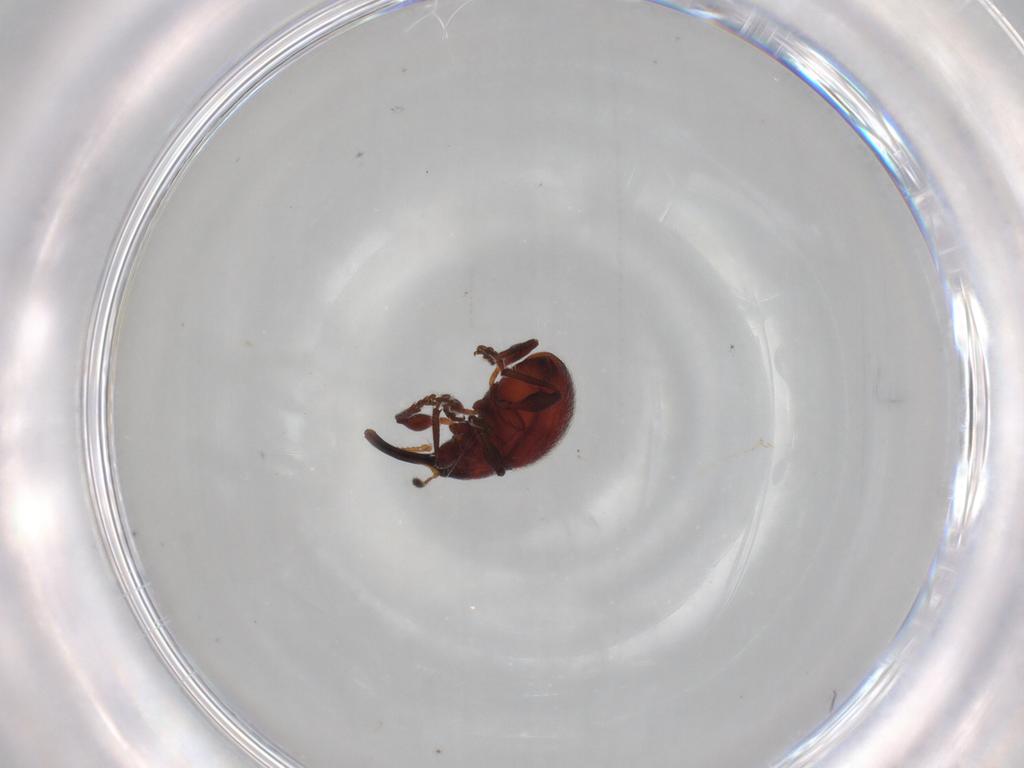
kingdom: Animalia
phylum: Arthropoda
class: Insecta
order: Coleoptera
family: Brentidae
